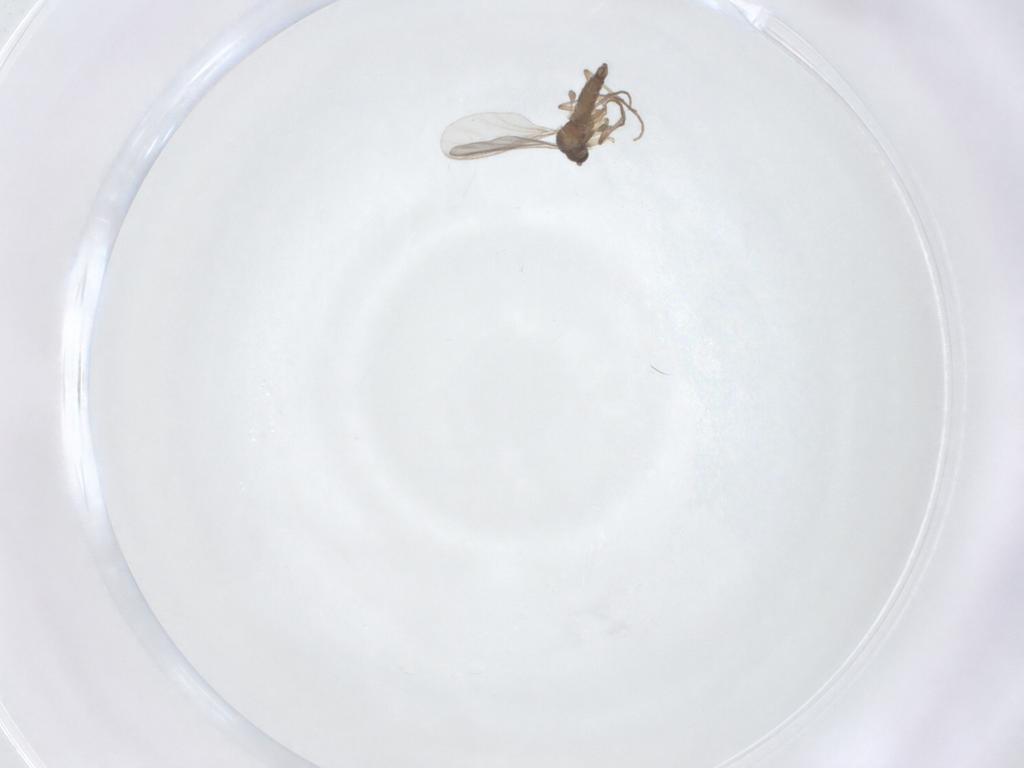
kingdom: Animalia
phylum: Arthropoda
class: Insecta
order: Diptera
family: Sciaridae
